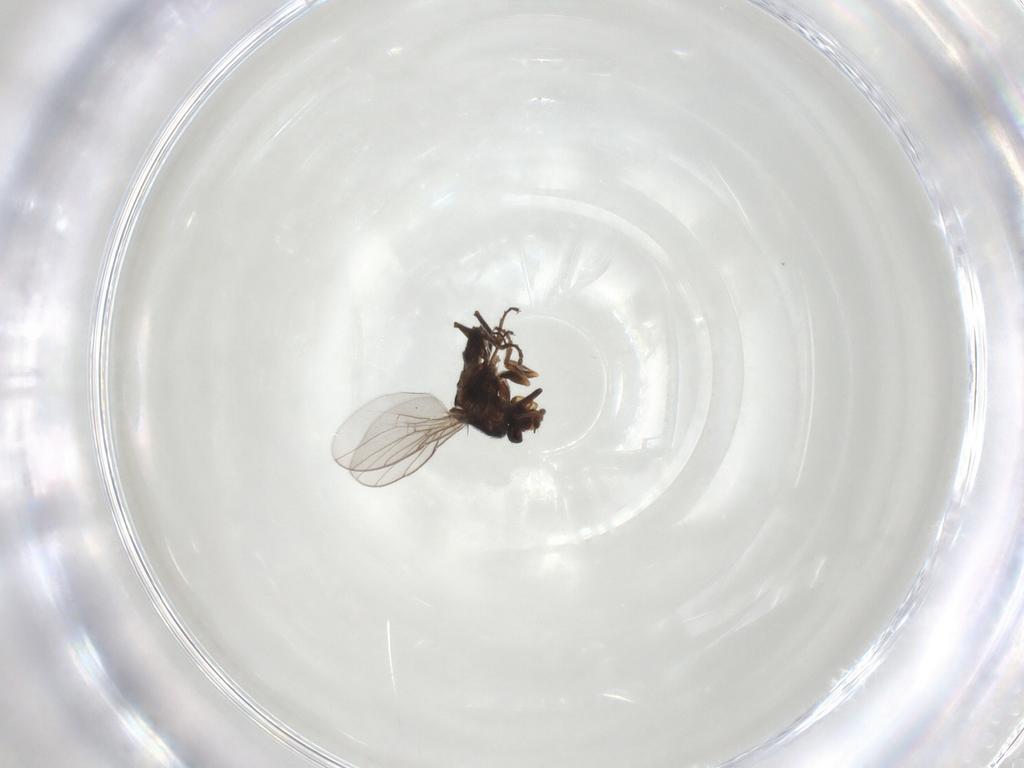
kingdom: Animalia
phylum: Arthropoda
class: Insecta
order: Diptera
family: Chloropidae
